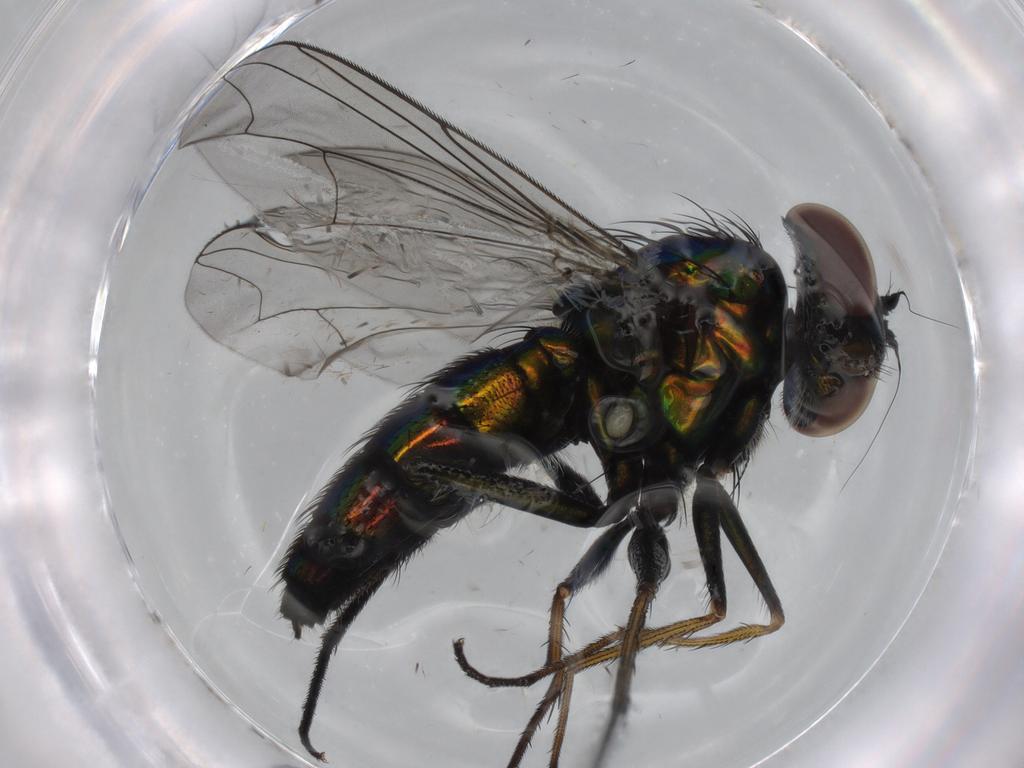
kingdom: Animalia
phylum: Arthropoda
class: Insecta
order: Diptera
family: Dolichopodidae
